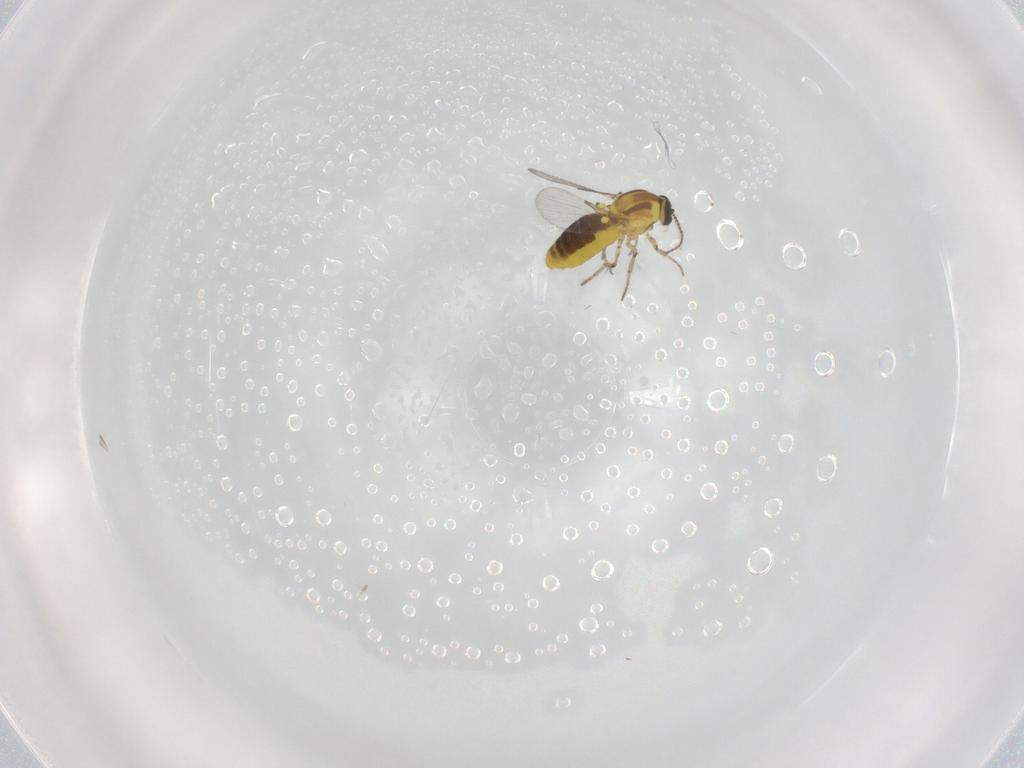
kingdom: Animalia
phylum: Arthropoda
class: Insecta
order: Diptera
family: Ceratopogonidae
